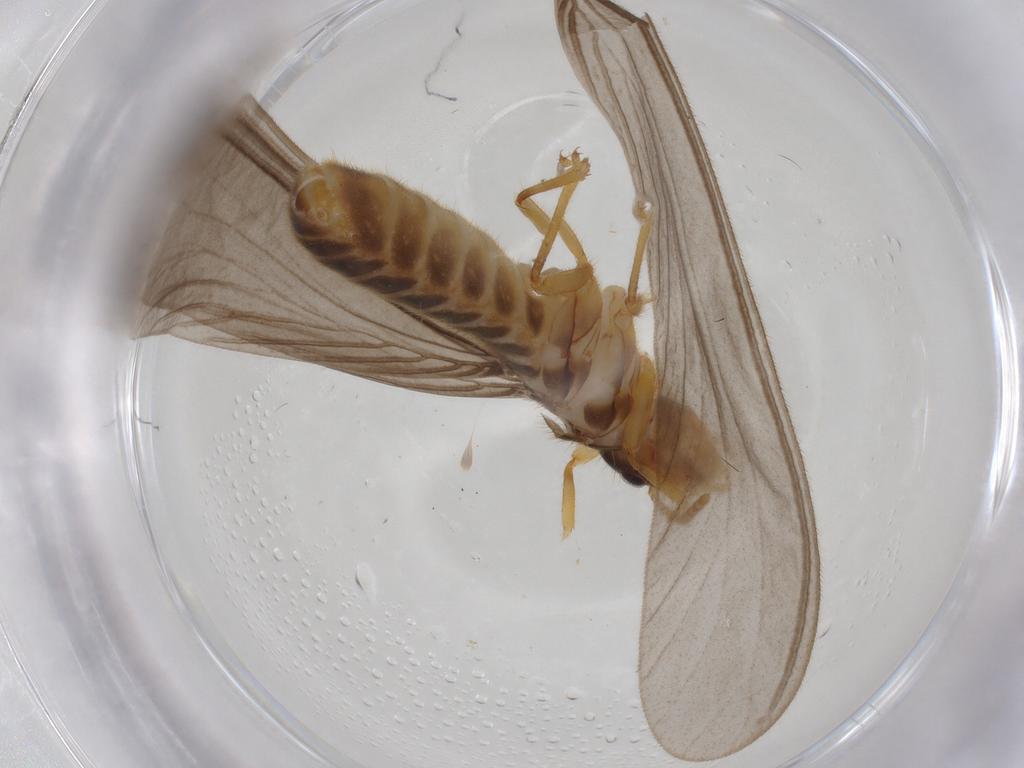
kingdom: Animalia
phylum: Arthropoda
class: Insecta
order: Blattodea
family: Termitidae
